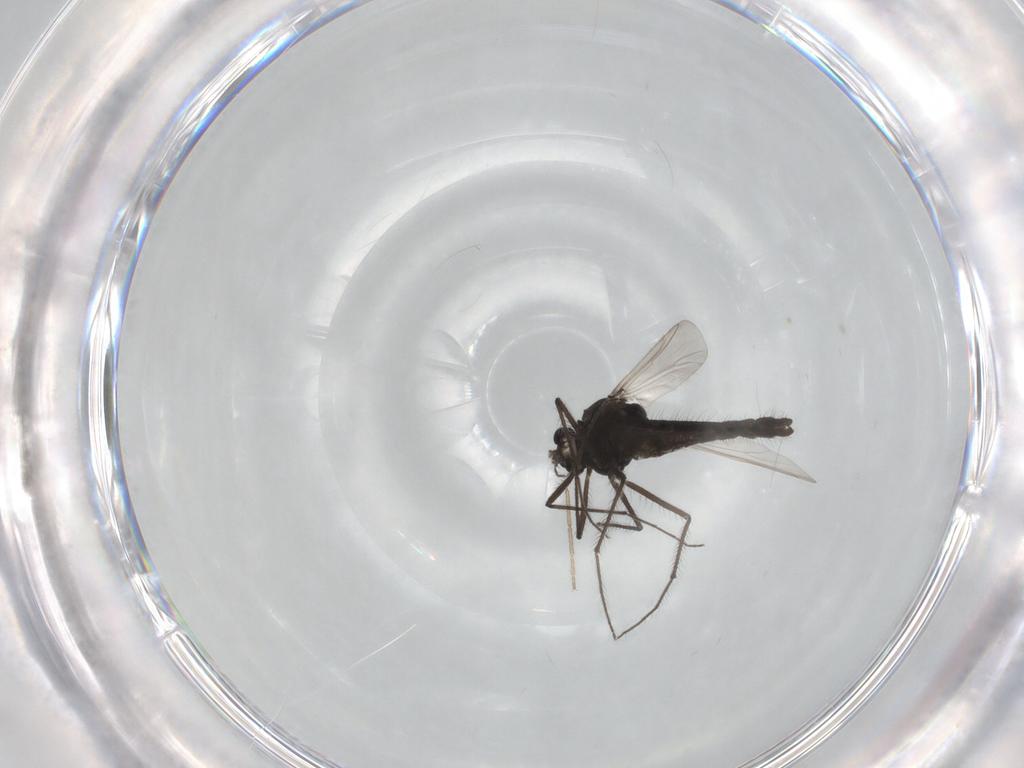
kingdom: Animalia
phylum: Arthropoda
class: Insecta
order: Diptera
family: Chironomidae
